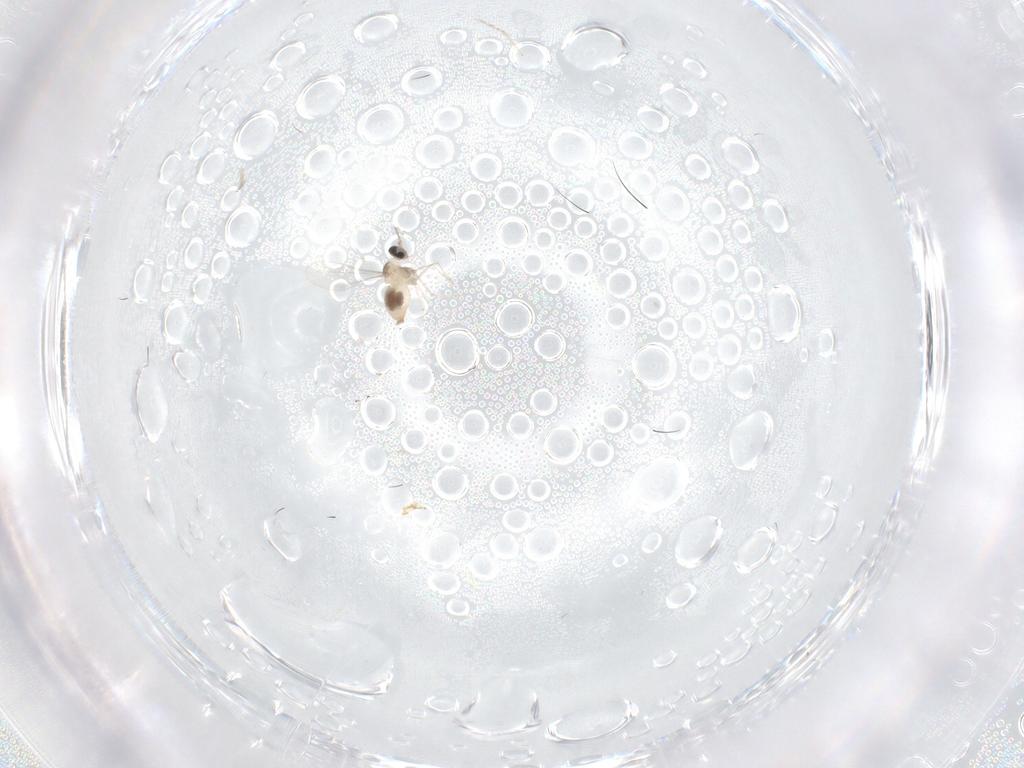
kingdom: Animalia
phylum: Arthropoda
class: Insecta
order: Diptera
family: Cecidomyiidae
